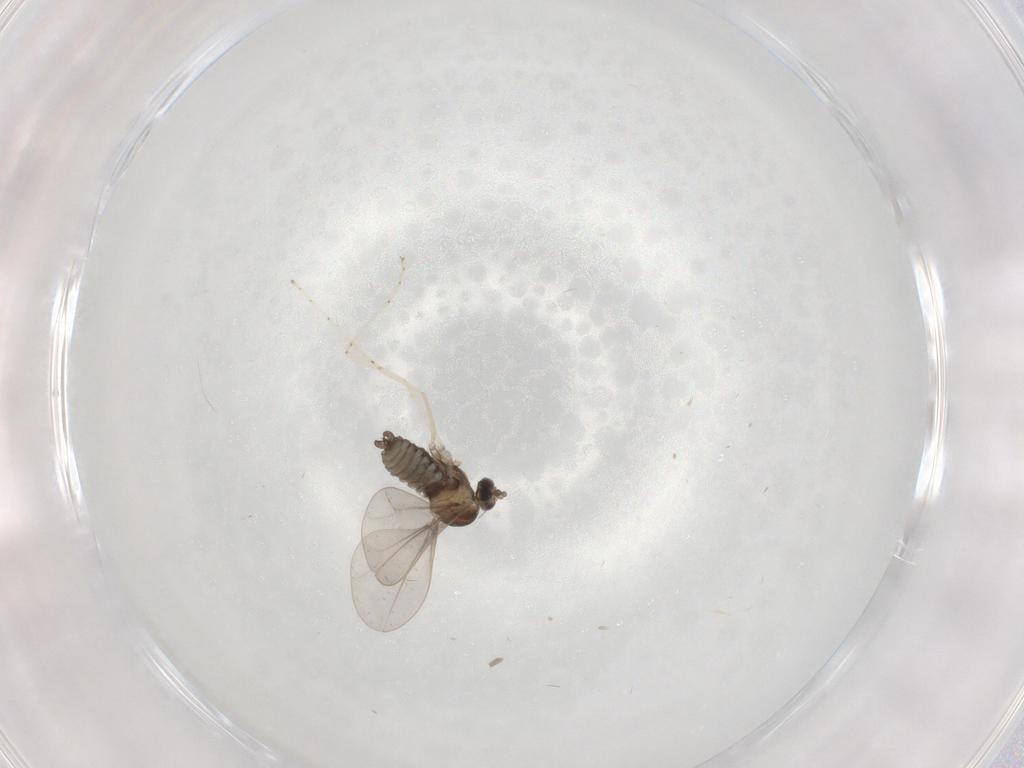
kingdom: Animalia
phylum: Arthropoda
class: Insecta
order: Diptera
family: Cecidomyiidae
